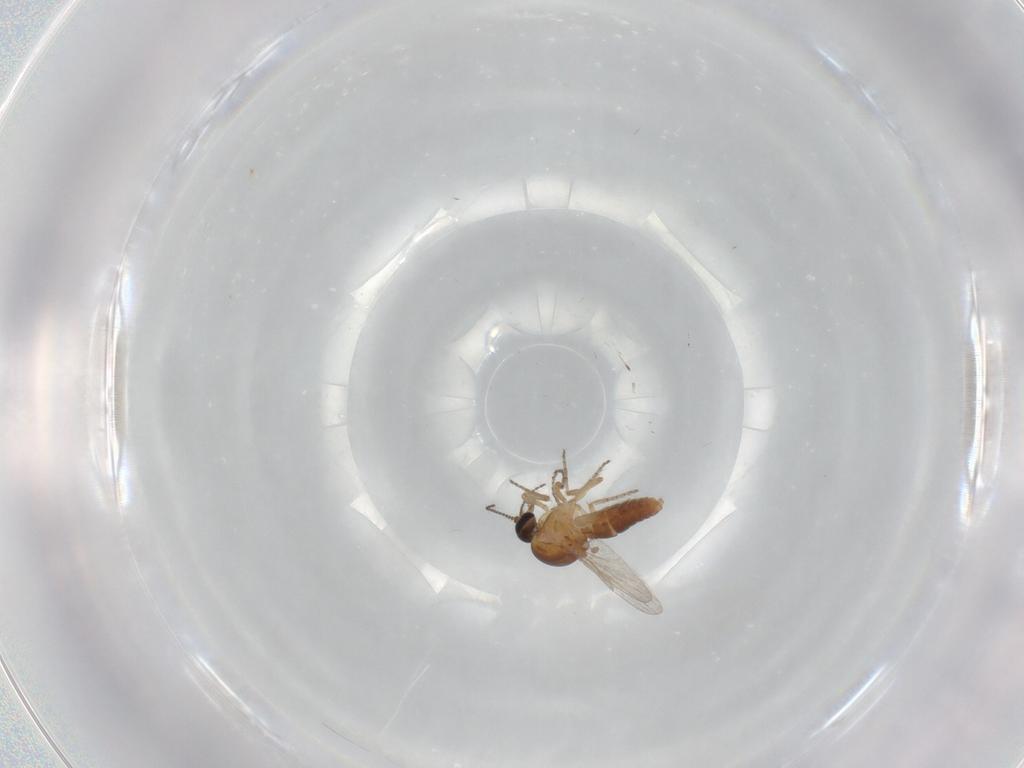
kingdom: Animalia
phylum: Arthropoda
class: Insecta
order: Diptera
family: Ceratopogonidae
